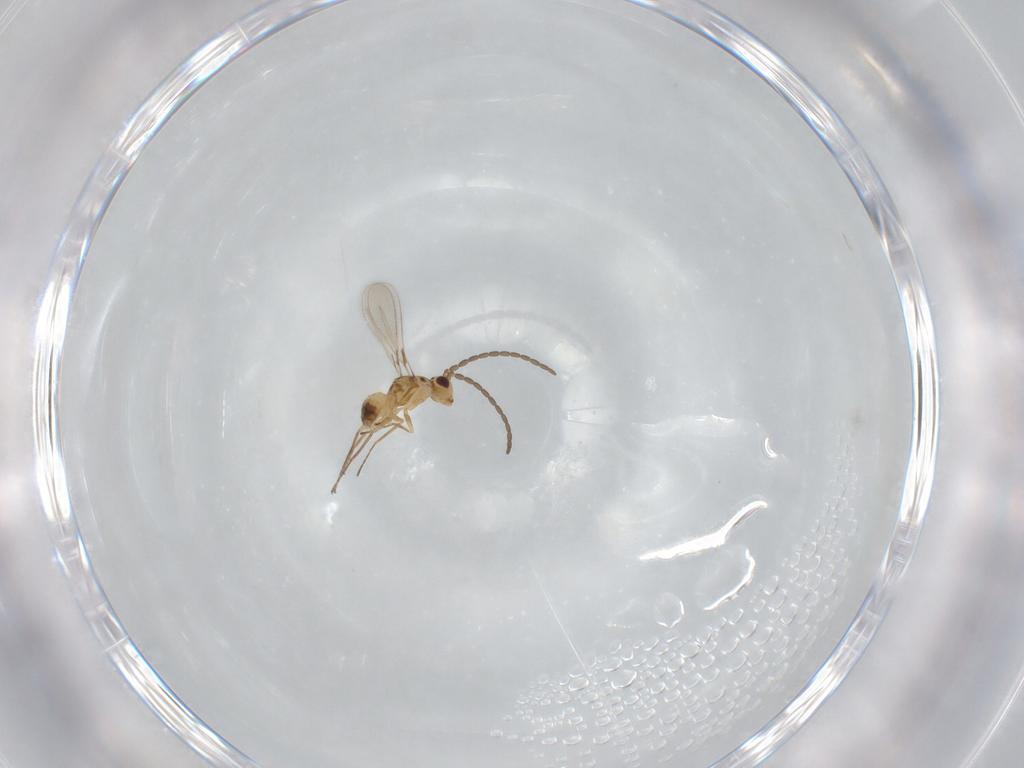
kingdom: Animalia
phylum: Arthropoda
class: Insecta
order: Hymenoptera
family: Mymaridae
